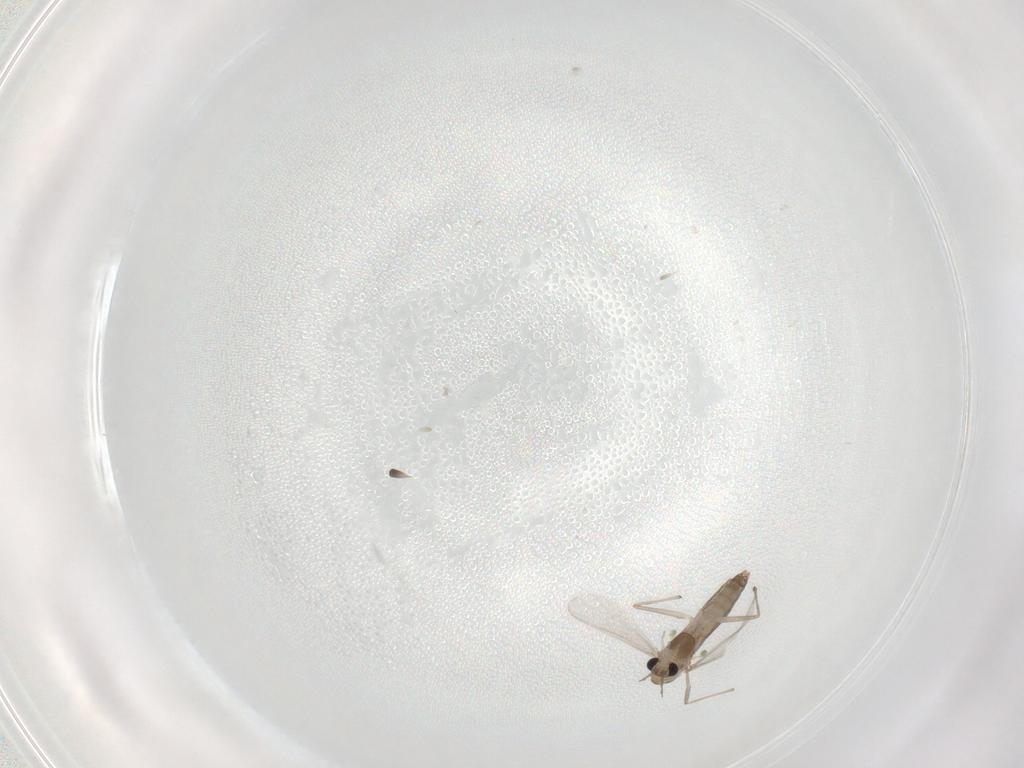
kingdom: Animalia
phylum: Arthropoda
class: Insecta
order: Diptera
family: Chironomidae
